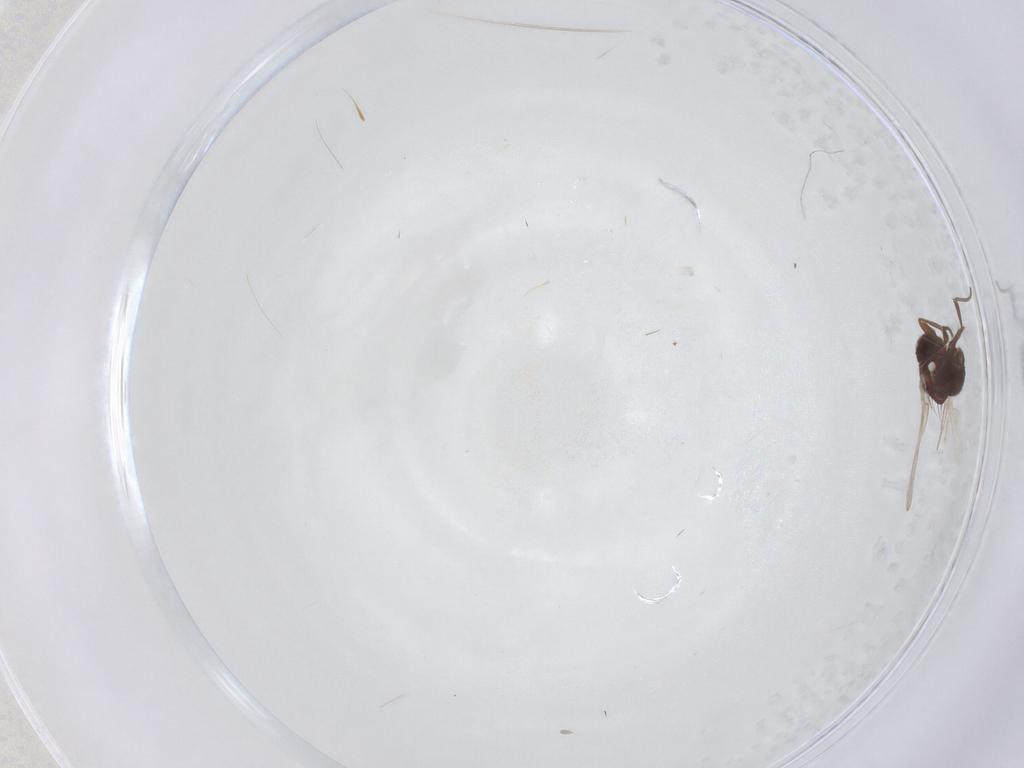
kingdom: Animalia
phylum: Arthropoda
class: Insecta
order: Diptera
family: Agromyzidae
